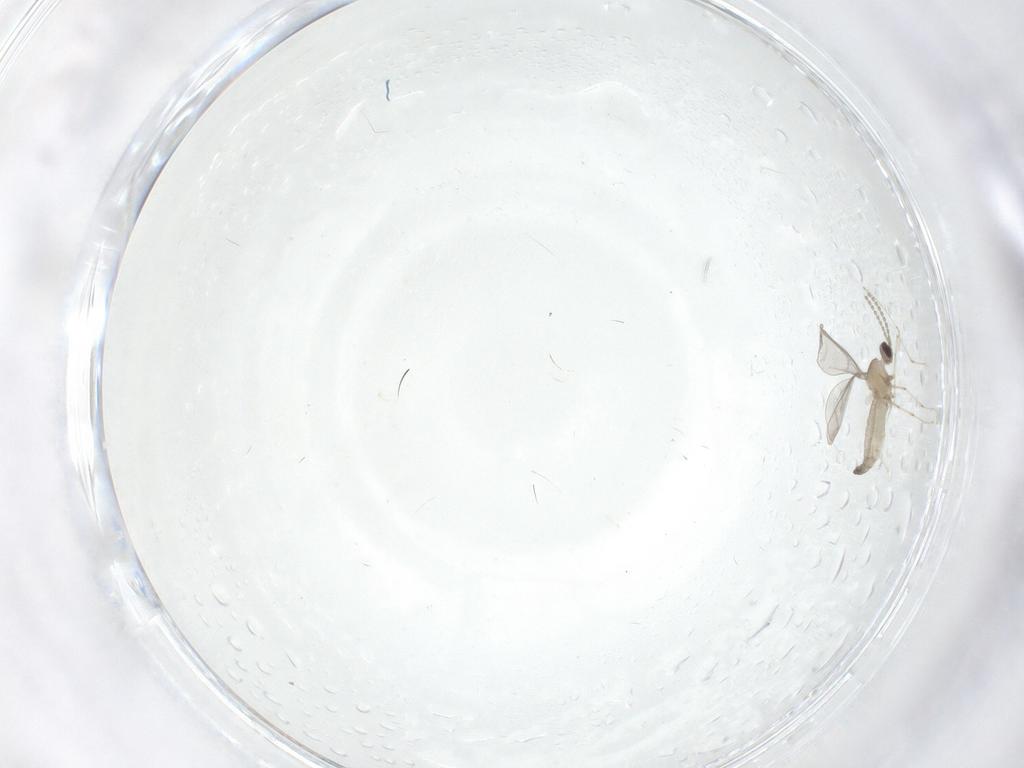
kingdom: Animalia
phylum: Arthropoda
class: Insecta
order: Diptera
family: Cecidomyiidae
